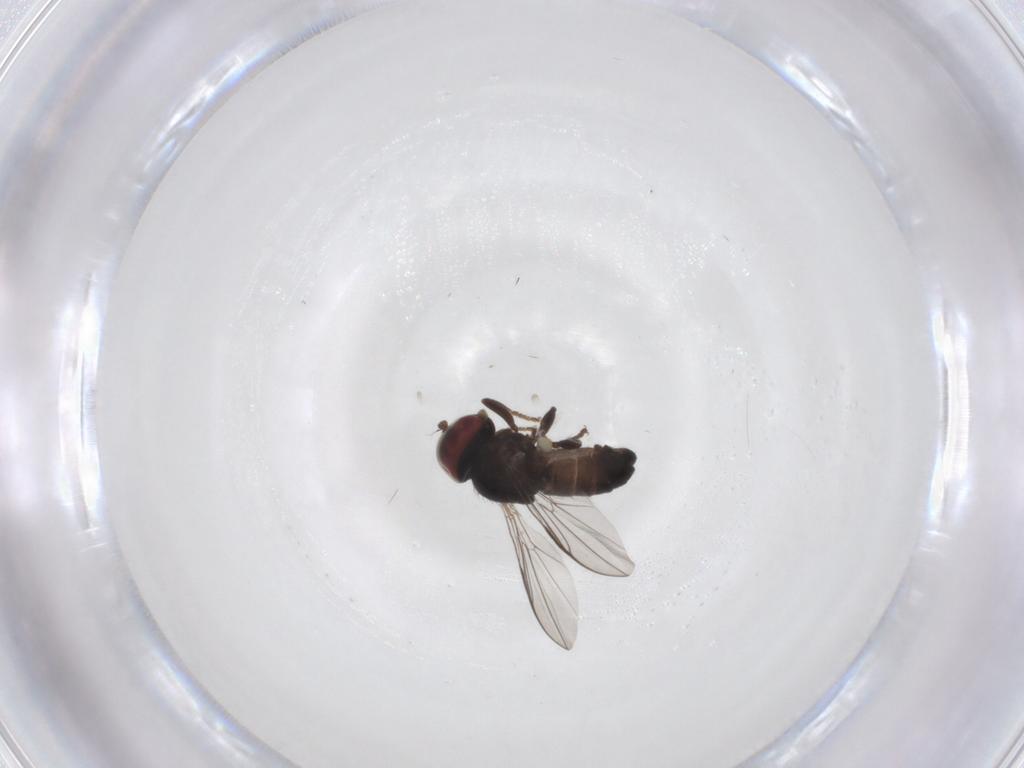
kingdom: Animalia
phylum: Arthropoda
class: Insecta
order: Diptera
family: Pipunculidae
